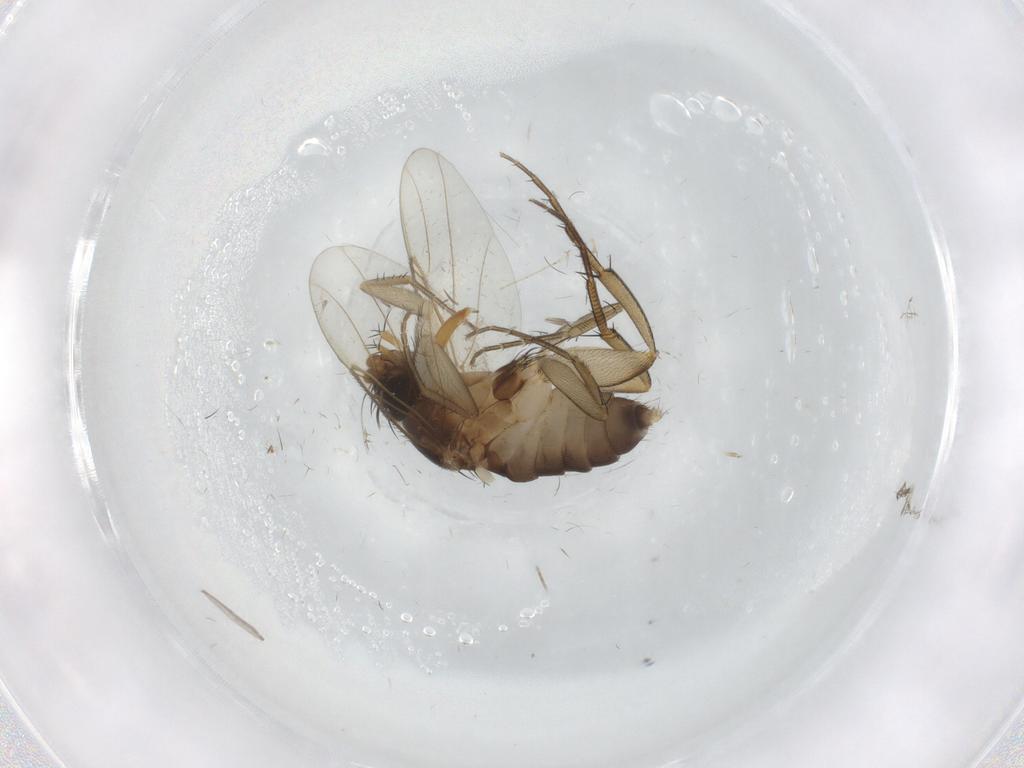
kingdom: Animalia
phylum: Arthropoda
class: Insecta
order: Diptera
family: Phoridae
